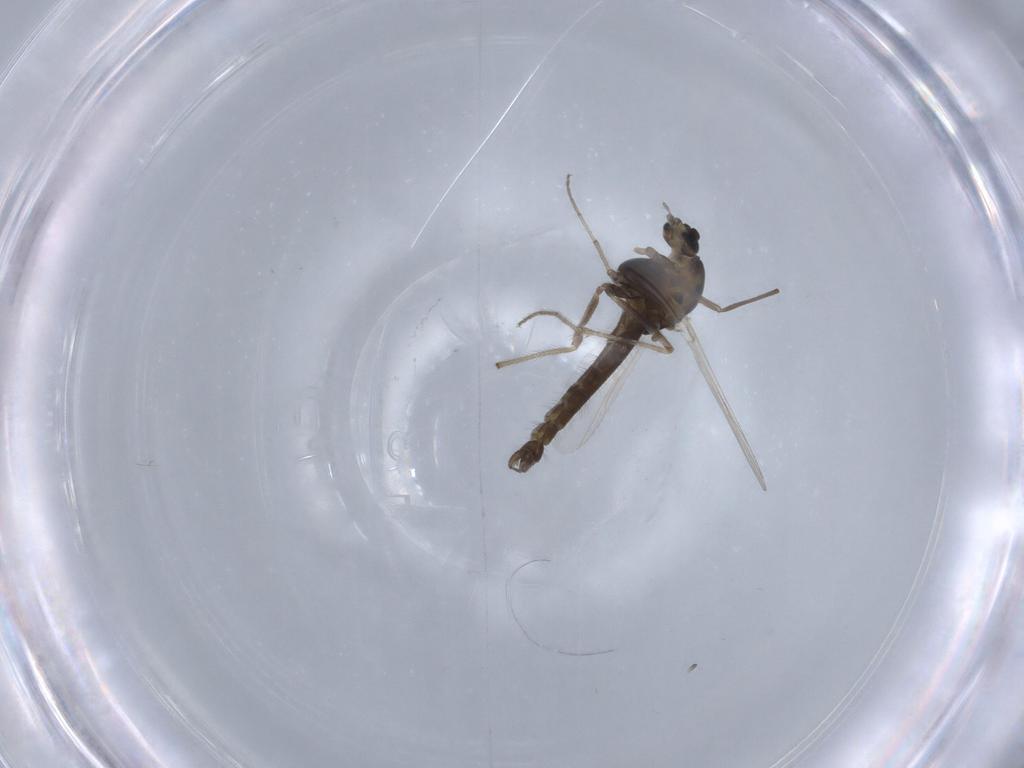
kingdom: Animalia
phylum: Arthropoda
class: Insecta
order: Diptera
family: Chironomidae
